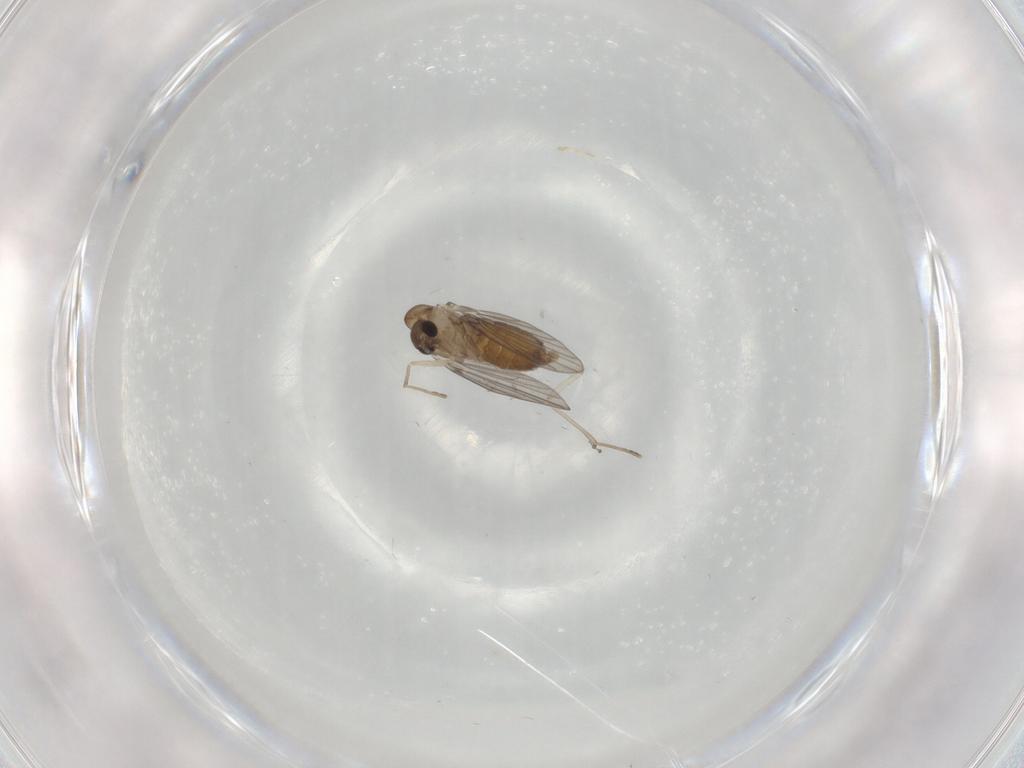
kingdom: Animalia
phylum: Arthropoda
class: Insecta
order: Diptera
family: Cecidomyiidae
